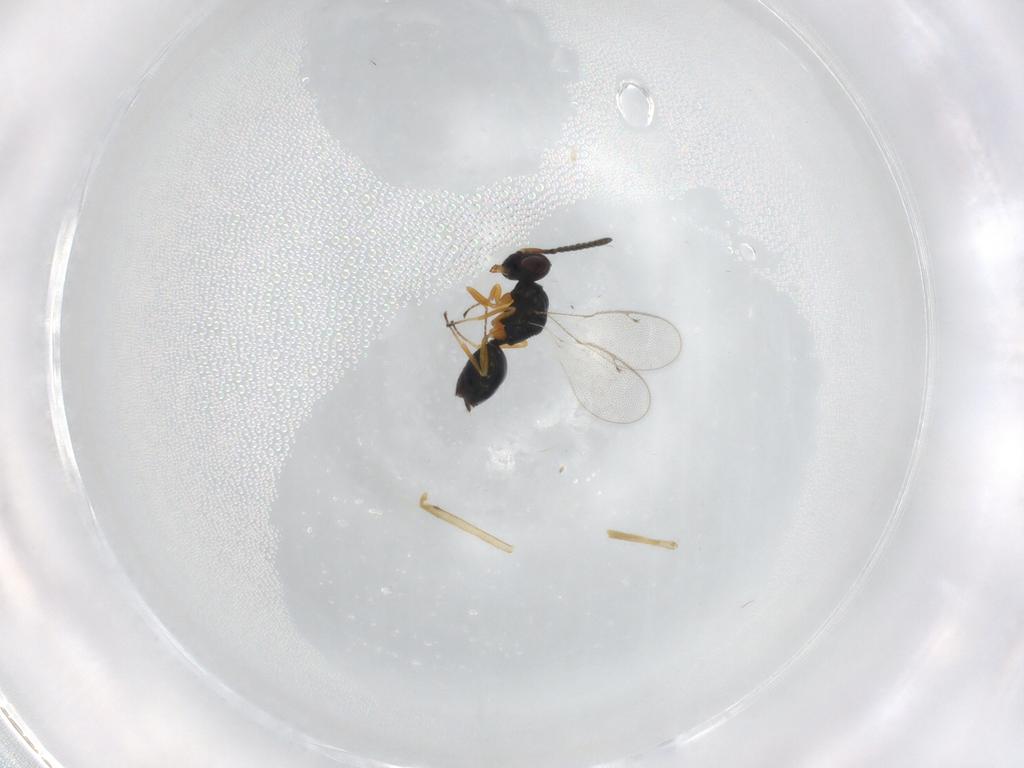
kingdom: Animalia
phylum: Arthropoda
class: Insecta
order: Hymenoptera
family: Pteromalidae
